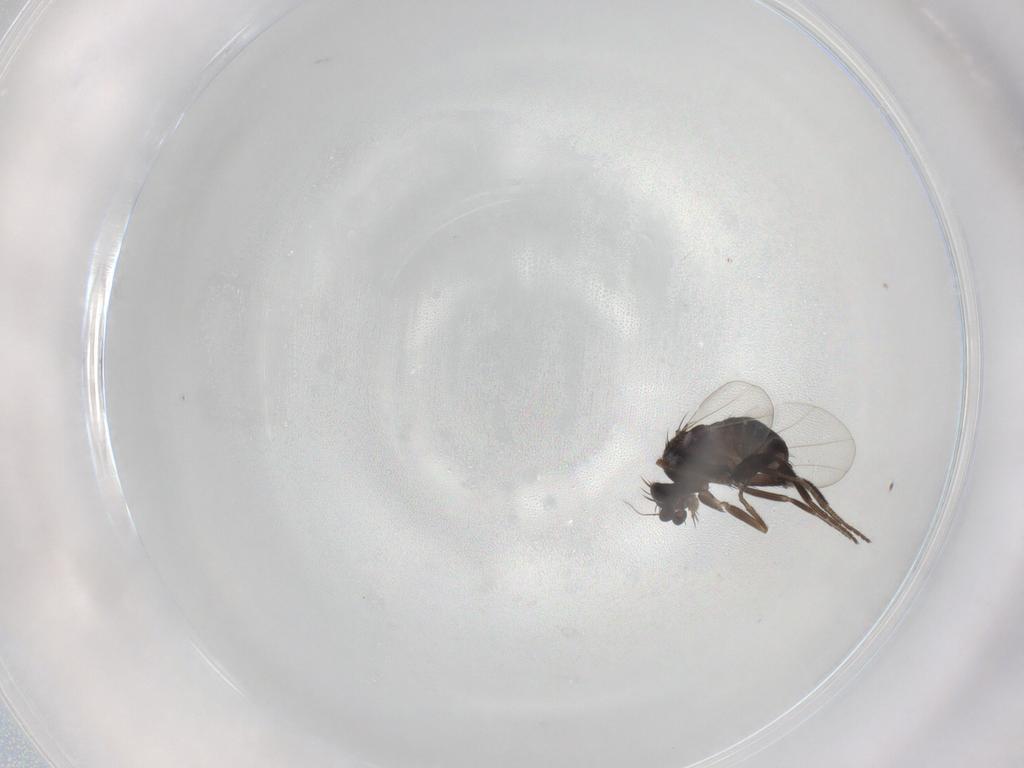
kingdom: Animalia
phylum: Arthropoda
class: Insecta
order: Diptera
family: Phoridae
